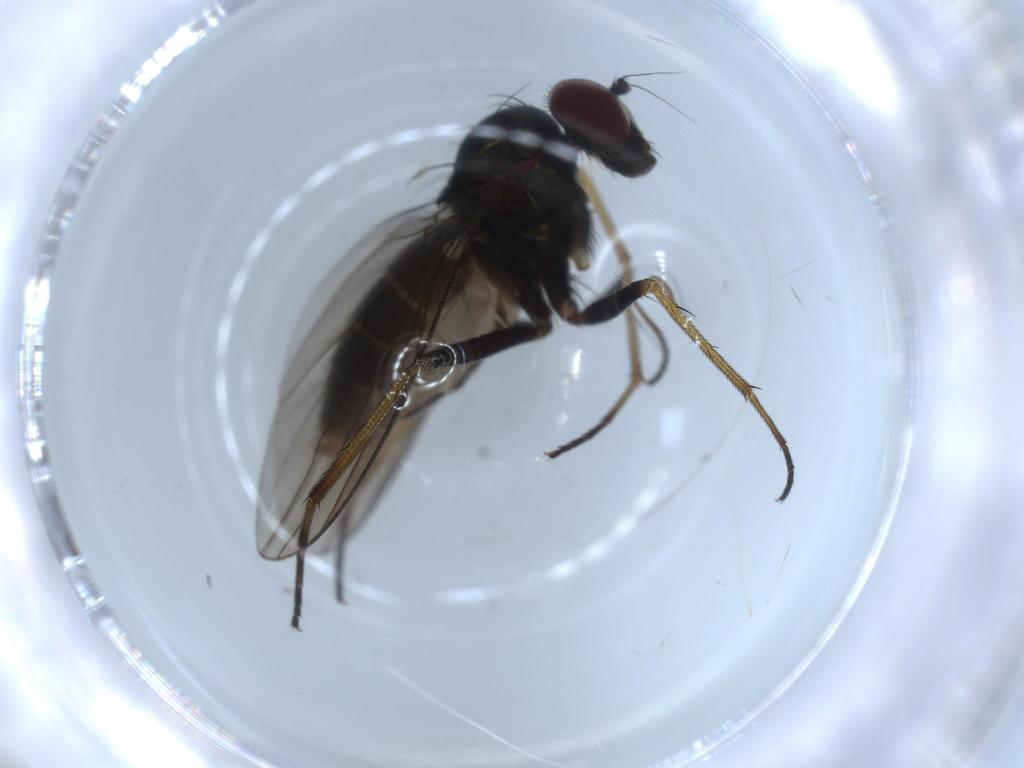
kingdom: Animalia
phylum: Arthropoda
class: Insecta
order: Diptera
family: Dolichopodidae
